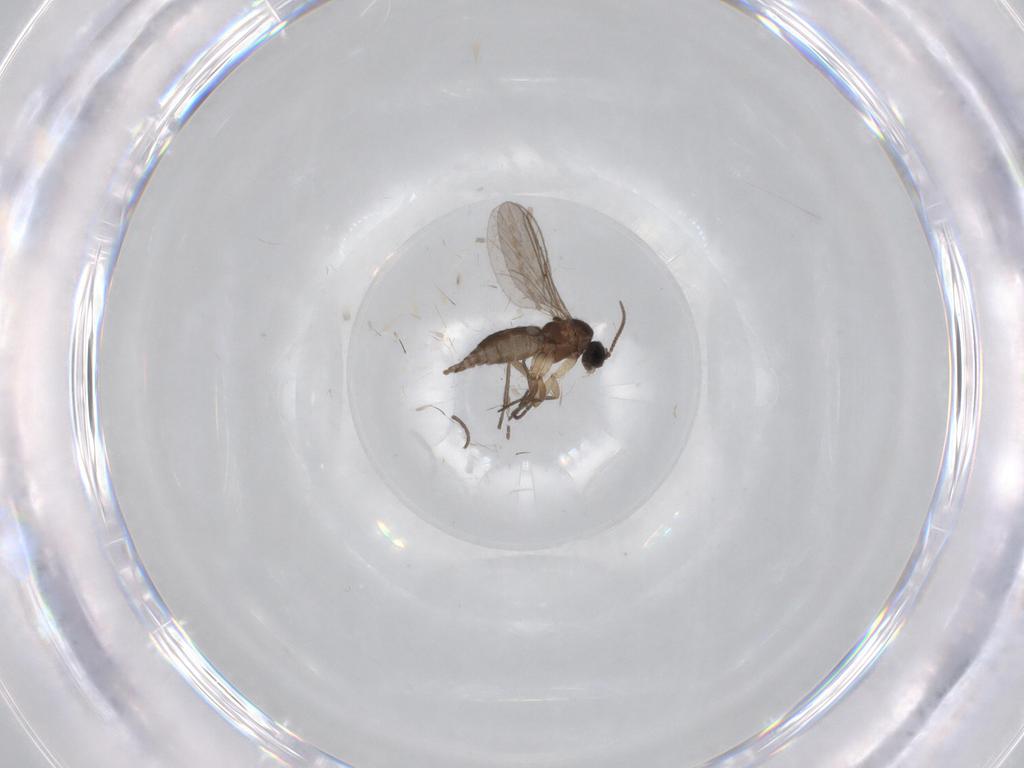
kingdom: Animalia
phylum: Arthropoda
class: Insecta
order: Diptera
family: Sciaridae
